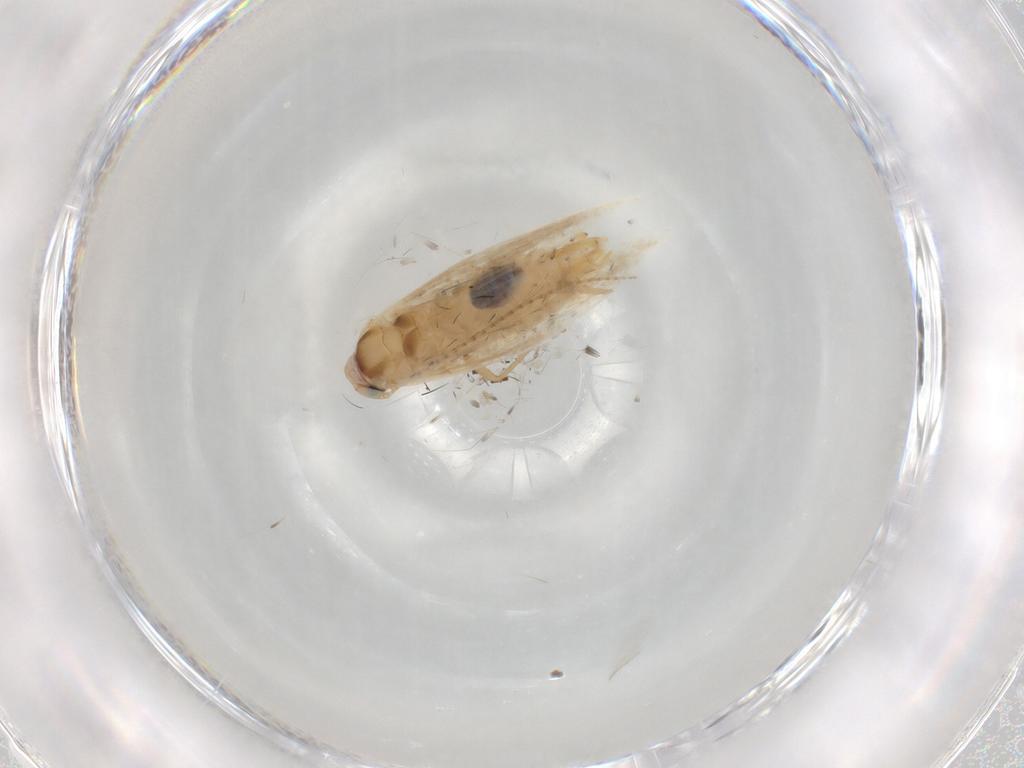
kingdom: Animalia
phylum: Arthropoda
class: Insecta
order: Lepidoptera
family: Bucculatricidae
